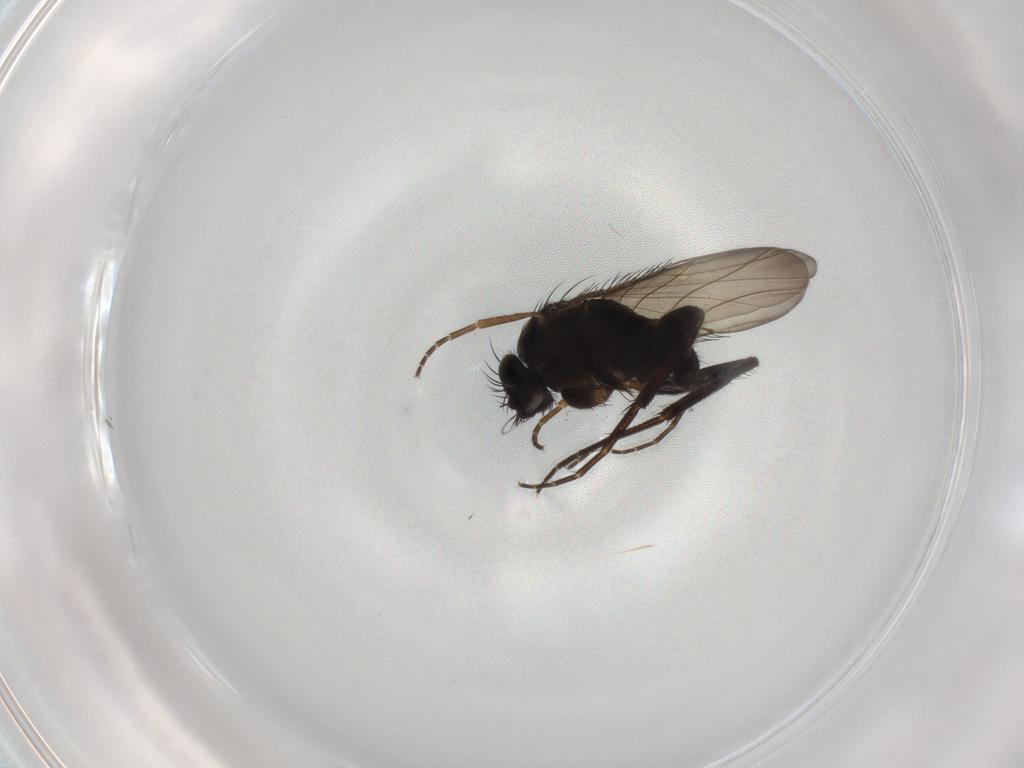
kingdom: Animalia
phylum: Arthropoda
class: Insecta
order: Diptera
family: Phoridae
